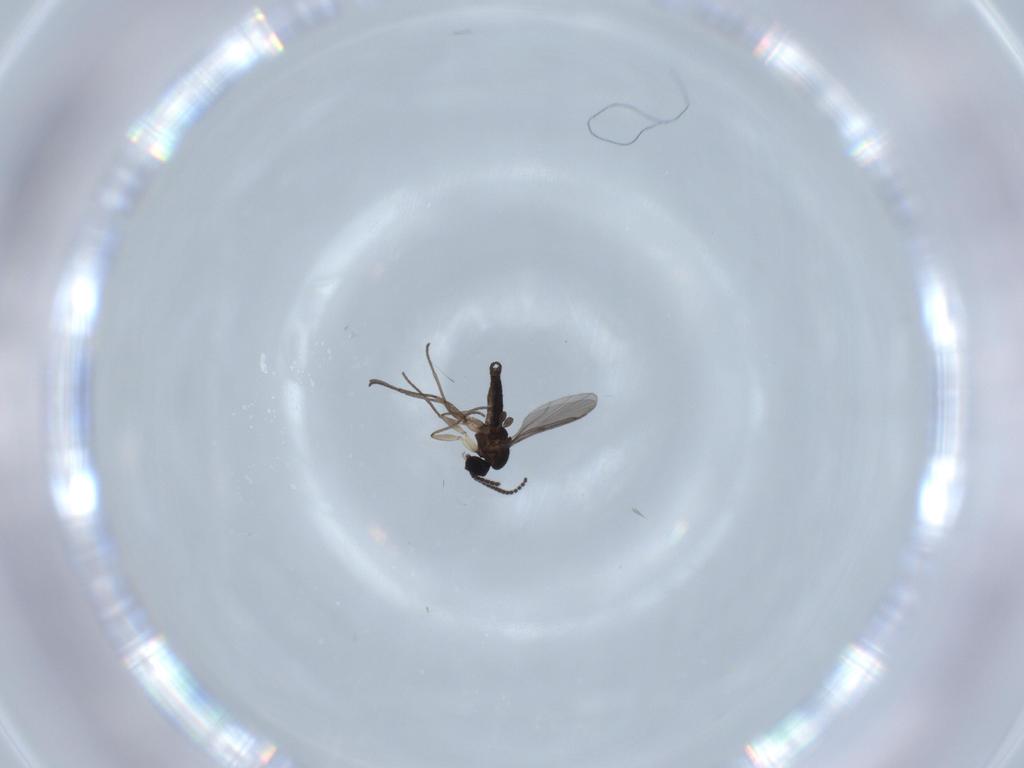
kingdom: Animalia
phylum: Arthropoda
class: Insecta
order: Diptera
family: Sciaridae
